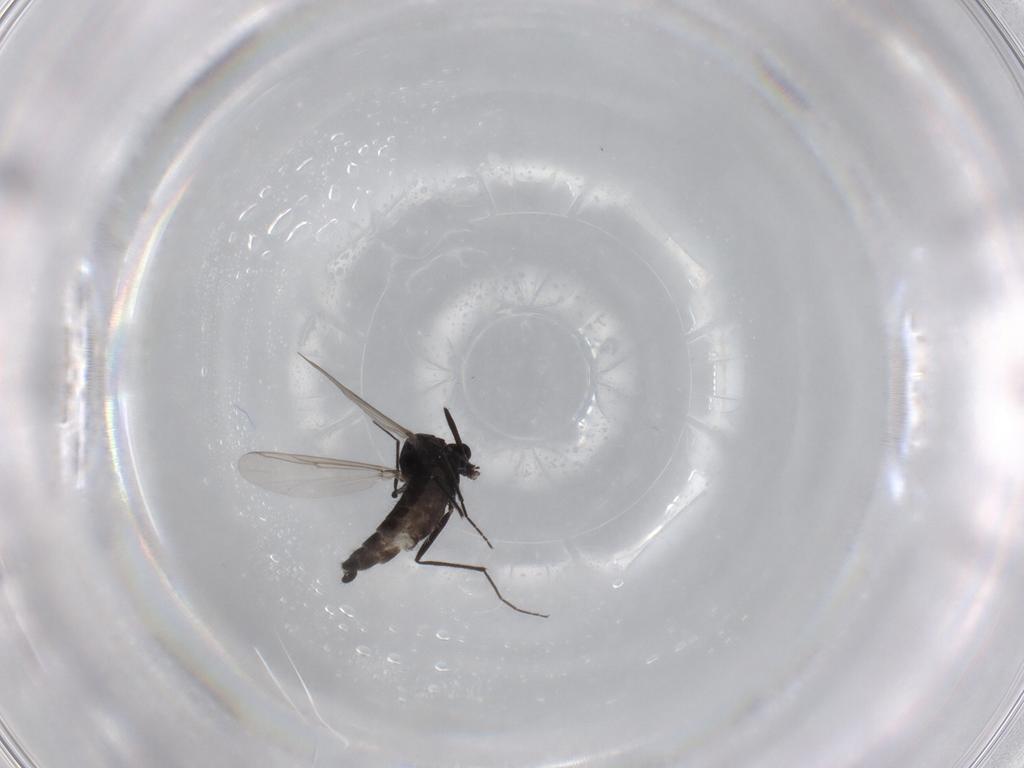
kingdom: Animalia
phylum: Arthropoda
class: Insecta
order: Diptera
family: Chironomidae
